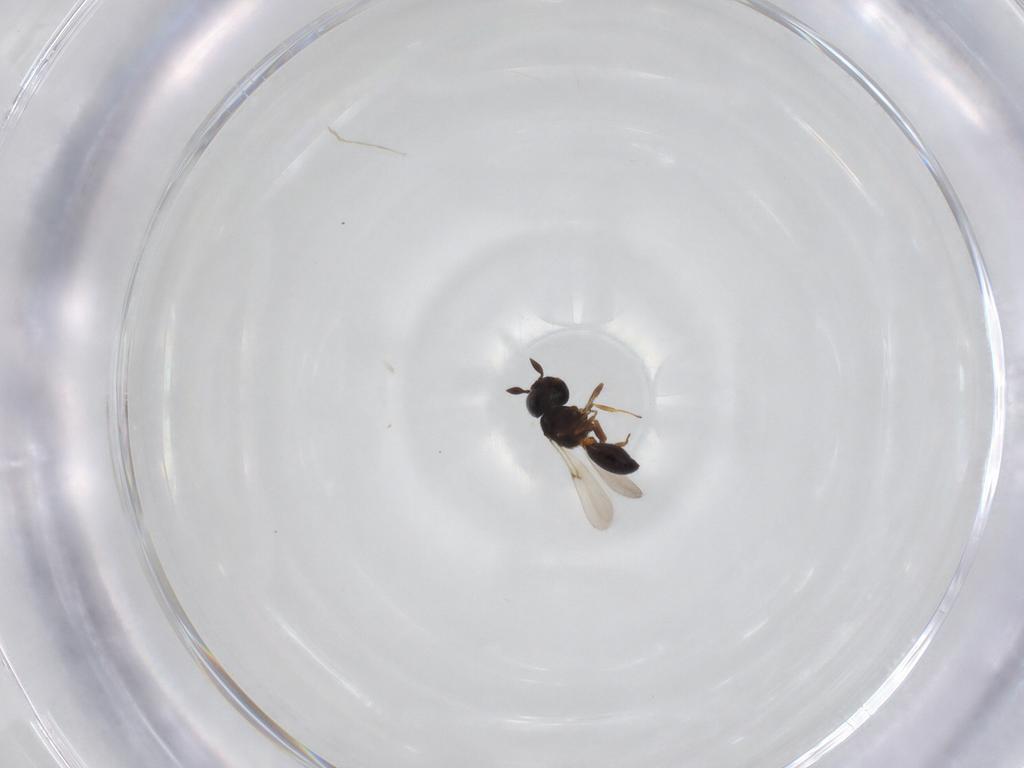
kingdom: Animalia
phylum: Arthropoda
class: Arachnida
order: Araneae
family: Pholcidae
